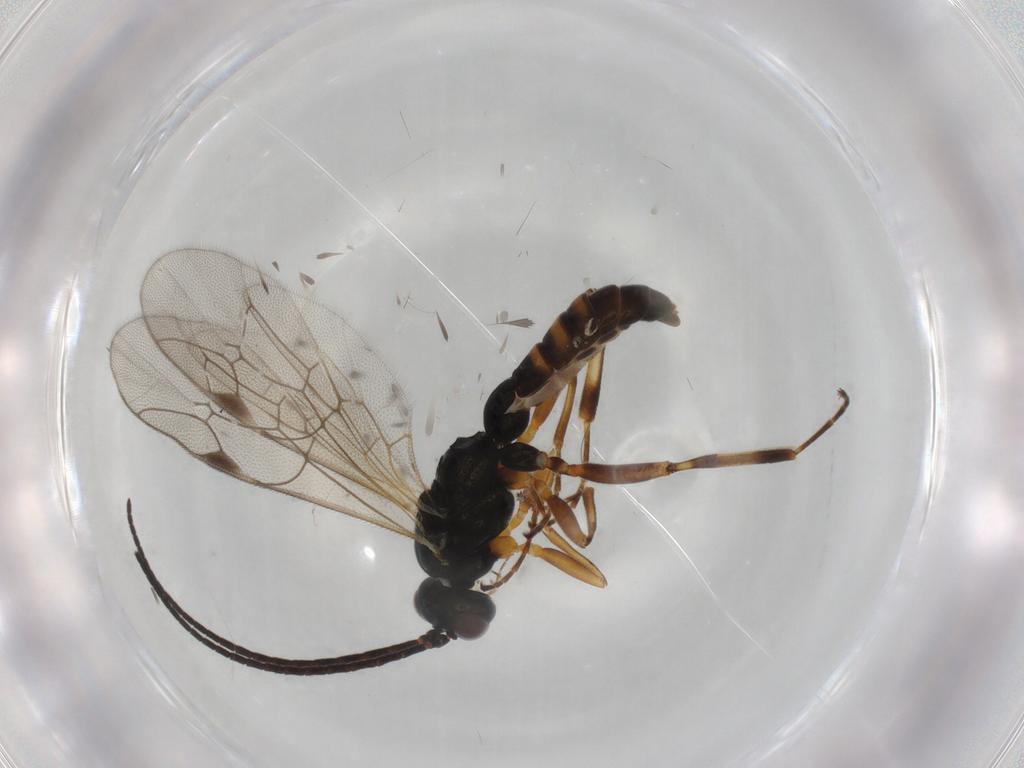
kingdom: Animalia
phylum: Arthropoda
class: Insecta
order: Hymenoptera
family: Ichneumonidae
